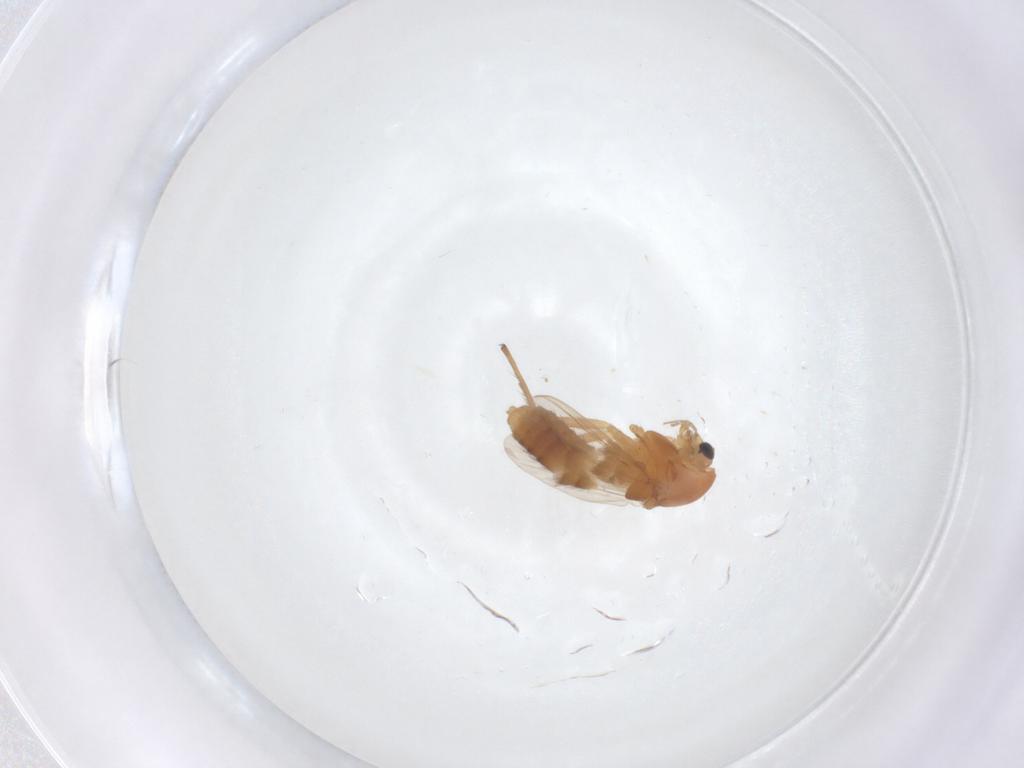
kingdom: Animalia
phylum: Arthropoda
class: Insecta
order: Diptera
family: Chironomidae
